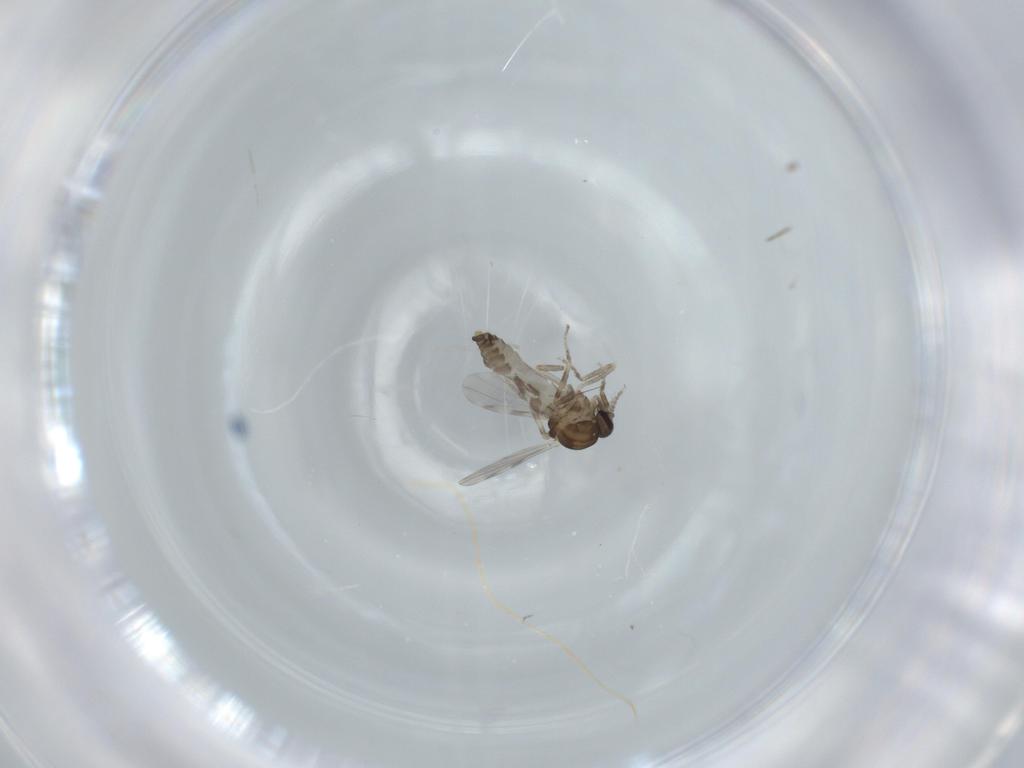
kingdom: Animalia
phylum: Arthropoda
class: Insecta
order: Diptera
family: Ceratopogonidae
